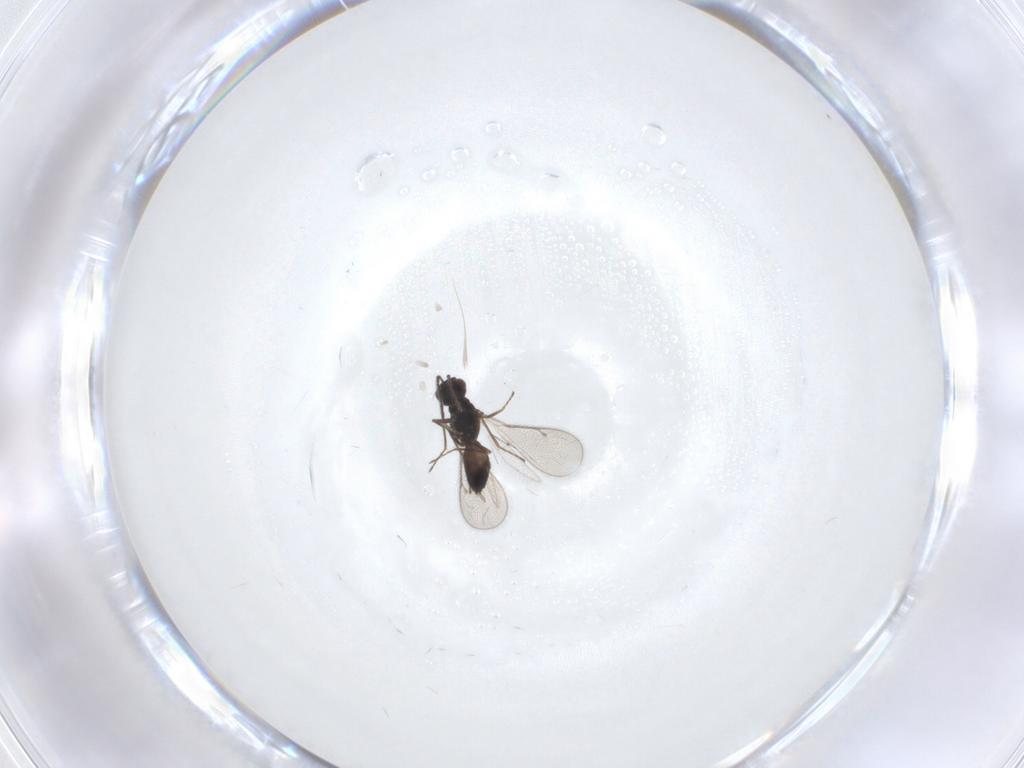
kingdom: Animalia
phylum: Arthropoda
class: Insecta
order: Hymenoptera
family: Eulophidae
